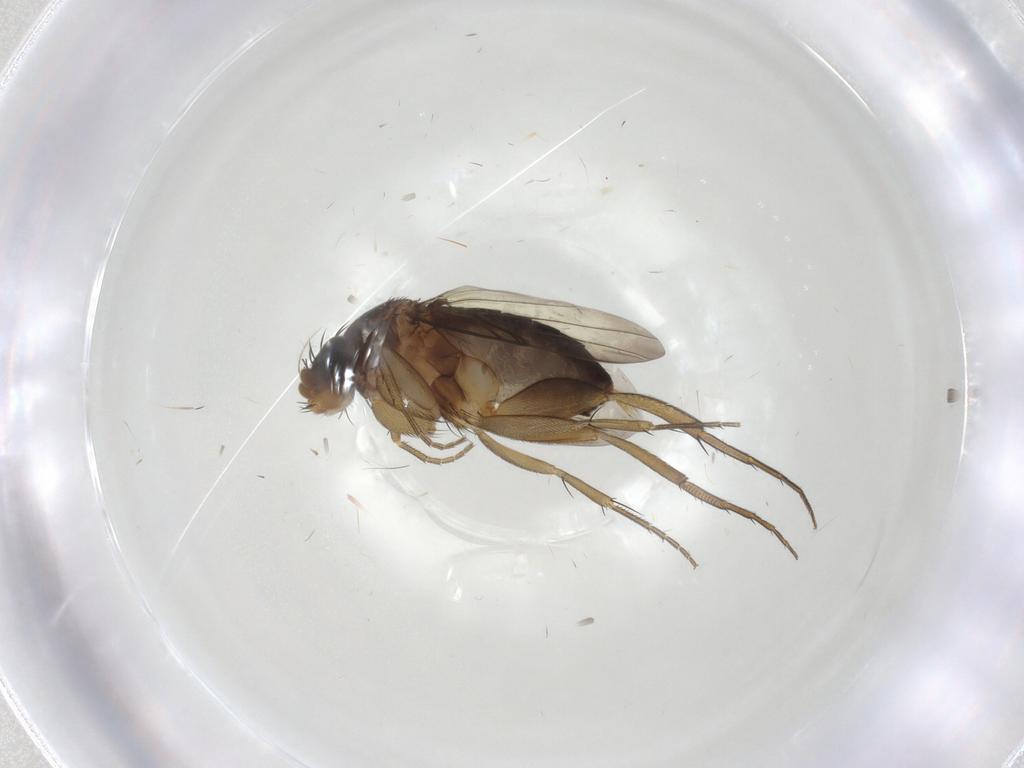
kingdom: Animalia
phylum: Arthropoda
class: Insecta
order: Diptera
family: Phoridae
